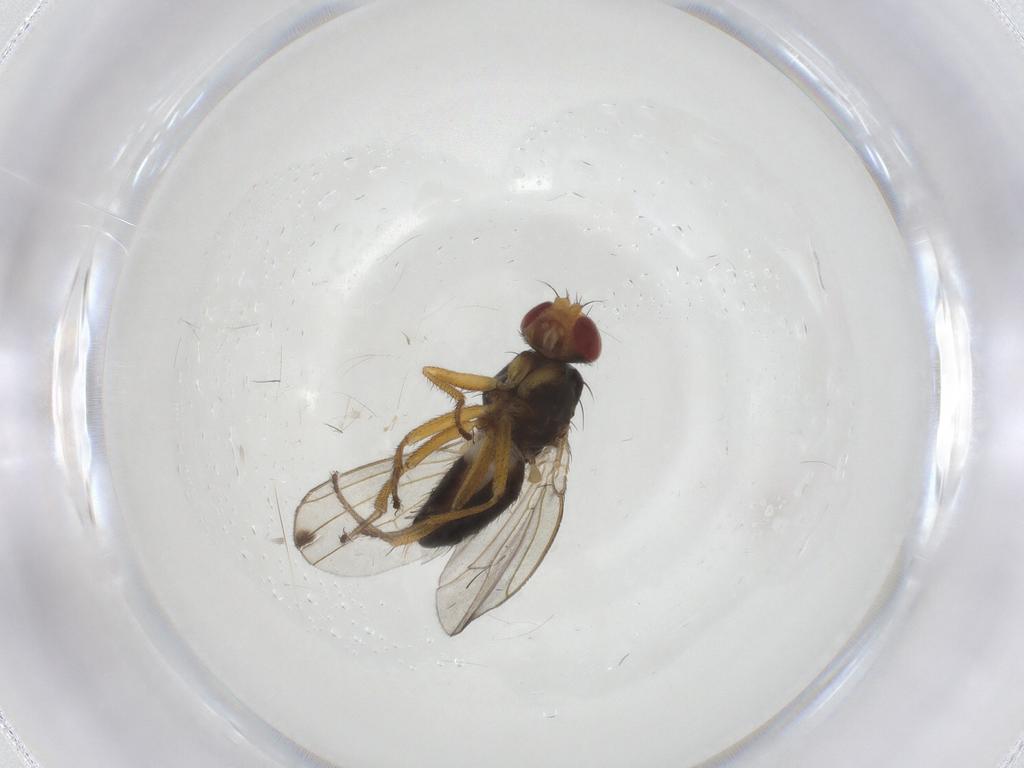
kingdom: Animalia
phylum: Arthropoda
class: Insecta
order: Diptera
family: Drosophilidae
